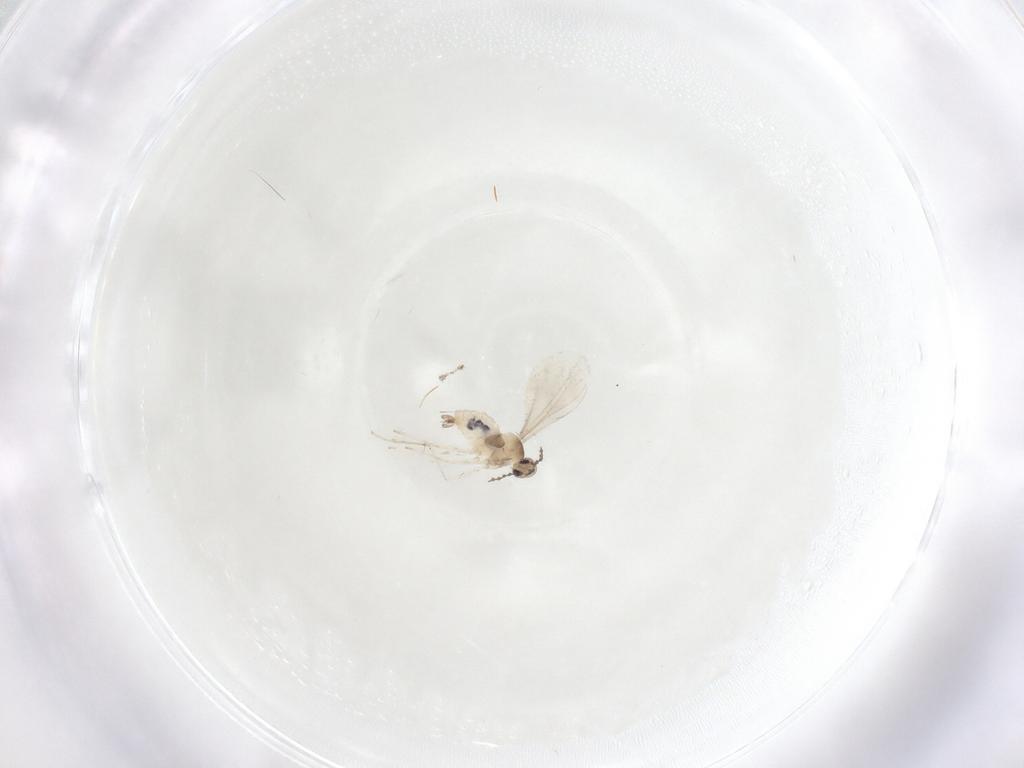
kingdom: Animalia
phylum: Arthropoda
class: Insecta
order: Diptera
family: Cecidomyiidae
